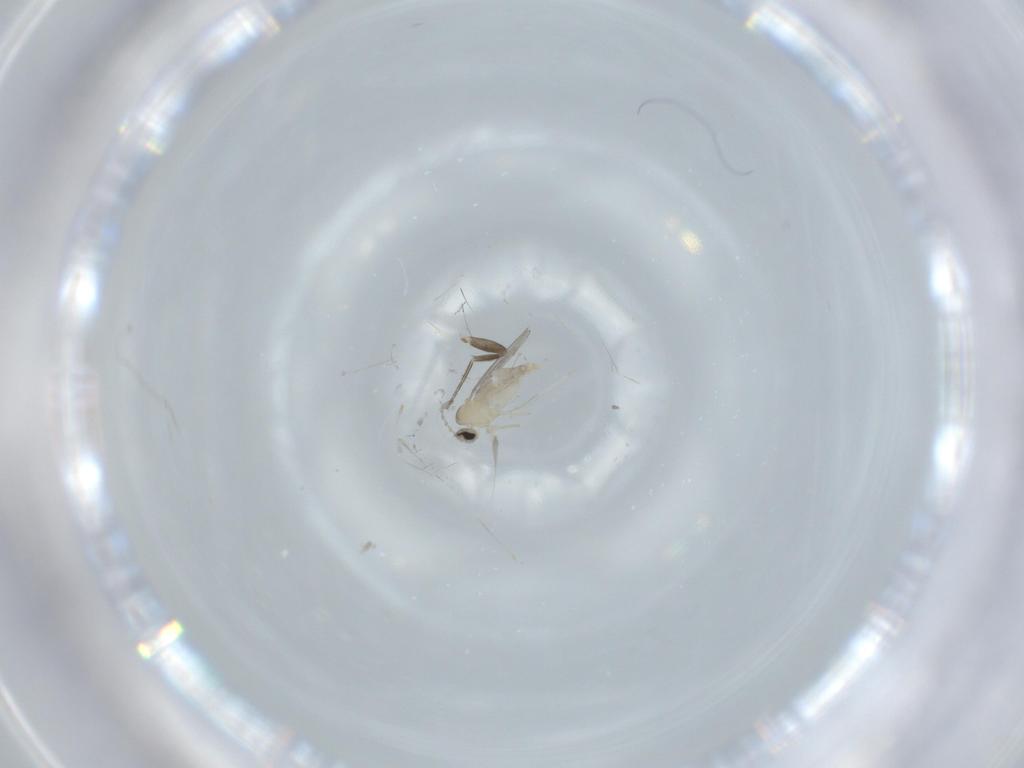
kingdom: Animalia
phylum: Arthropoda
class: Insecta
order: Diptera
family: Cecidomyiidae
